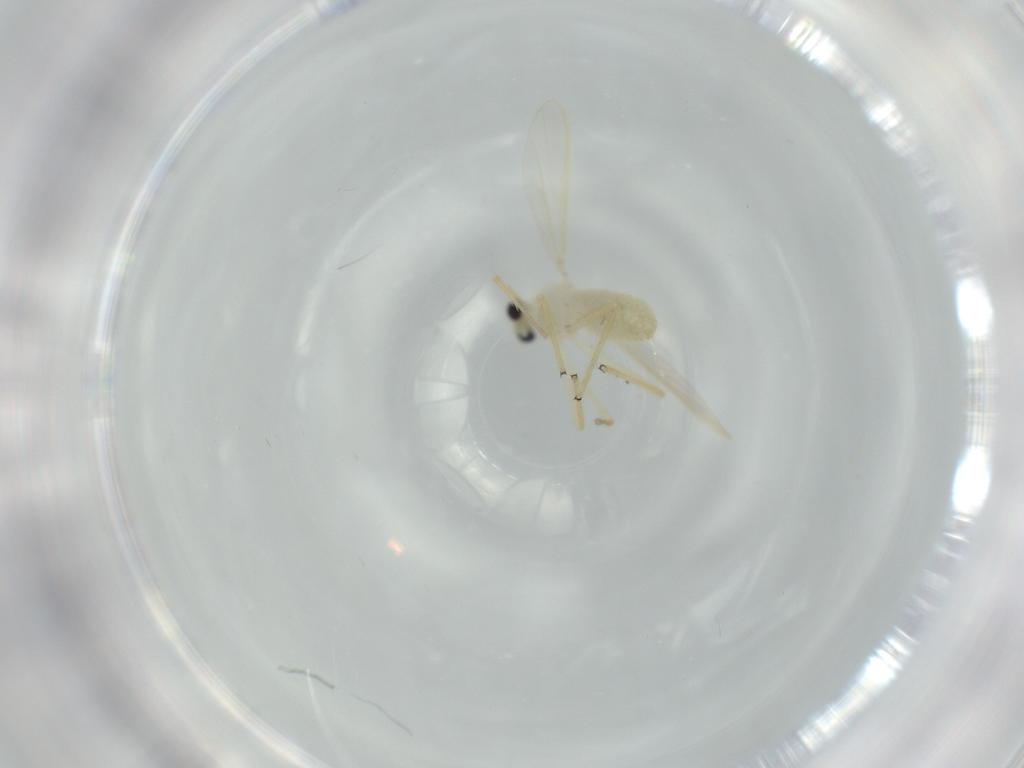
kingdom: Animalia
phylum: Arthropoda
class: Insecta
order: Diptera
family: Chironomidae
